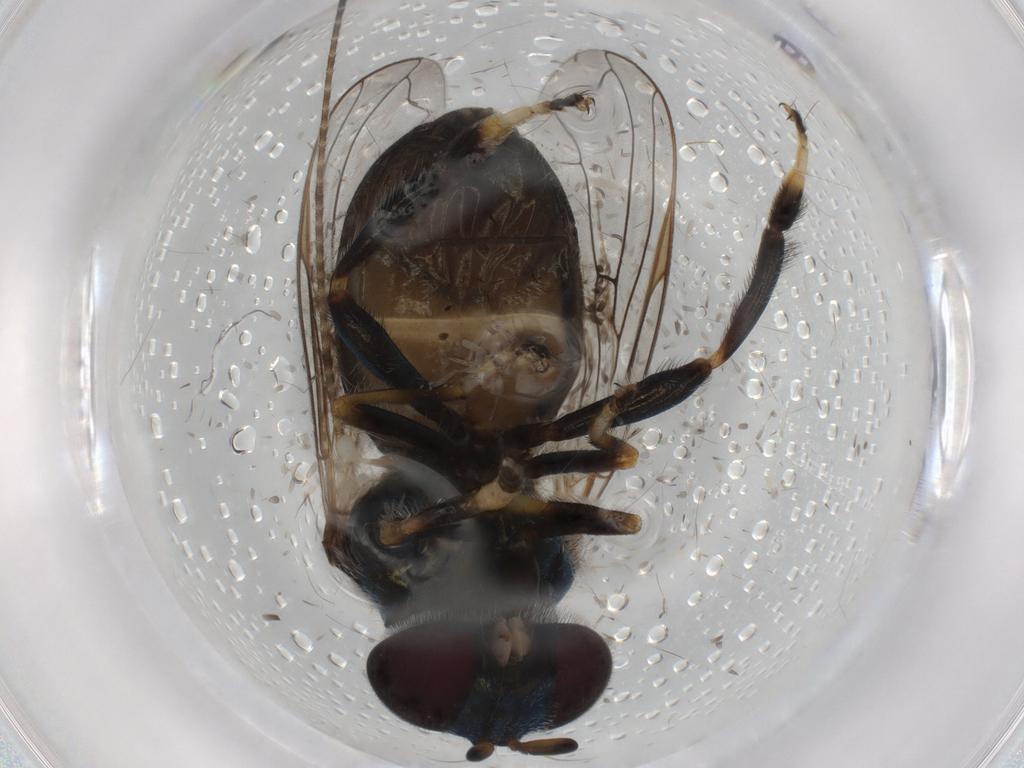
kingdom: Animalia
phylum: Arthropoda
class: Insecta
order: Diptera
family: Syrphidae
